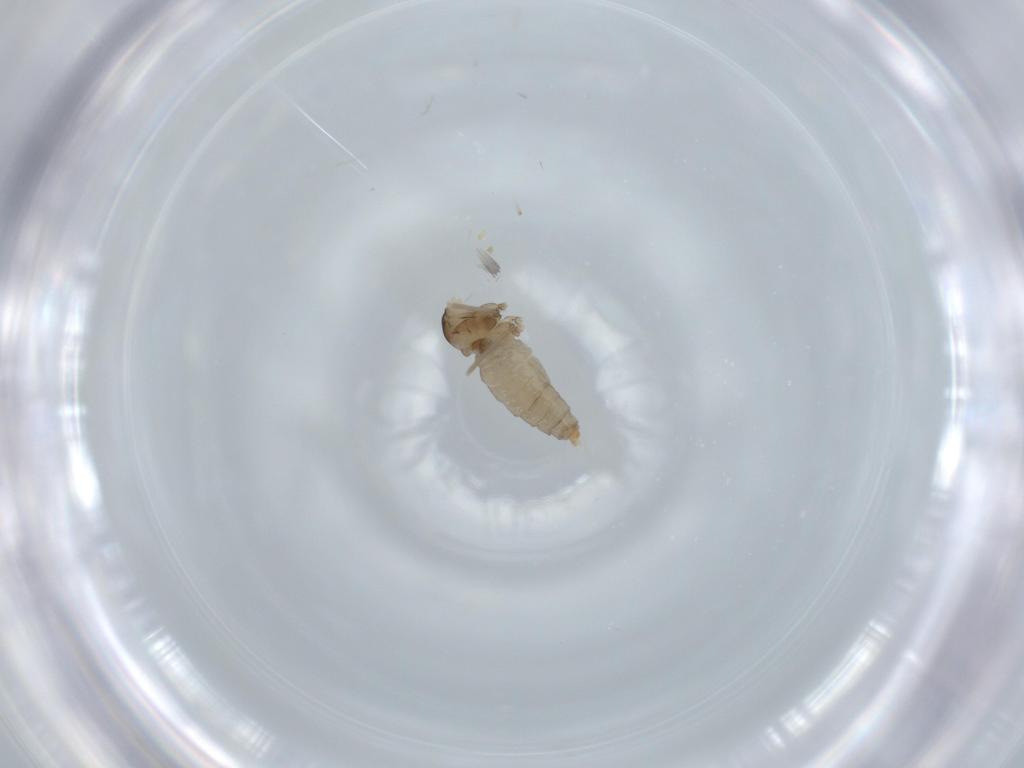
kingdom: Animalia
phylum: Arthropoda
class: Insecta
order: Diptera
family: Cecidomyiidae
